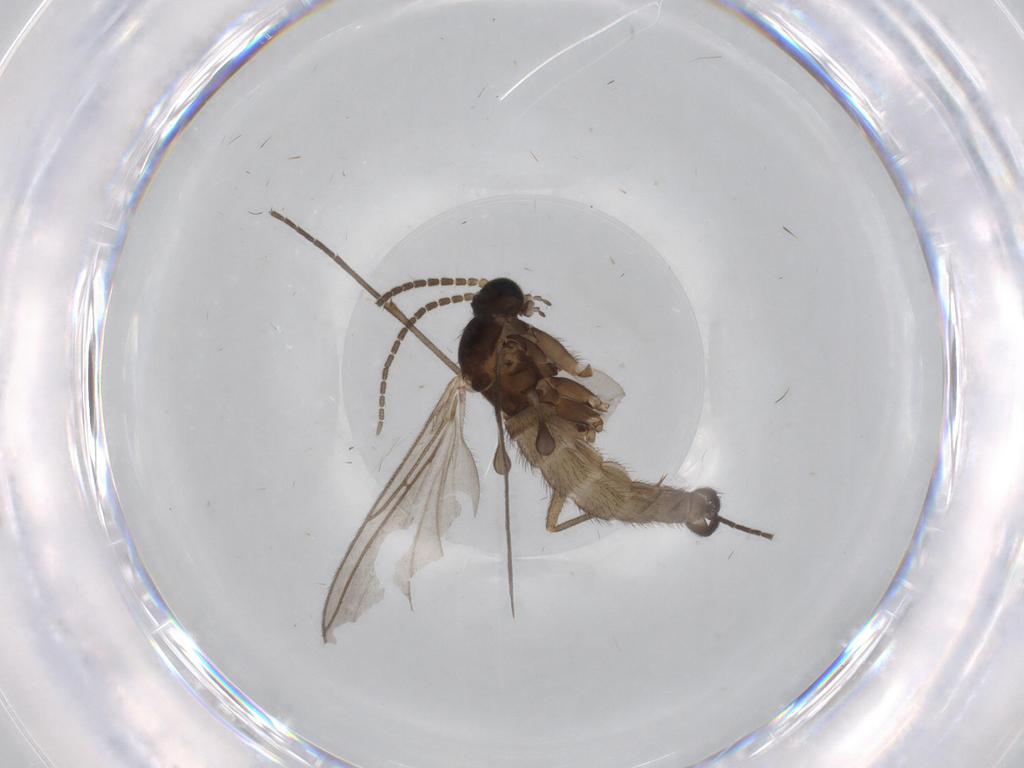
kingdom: Animalia
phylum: Arthropoda
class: Insecta
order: Diptera
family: Sciaridae
